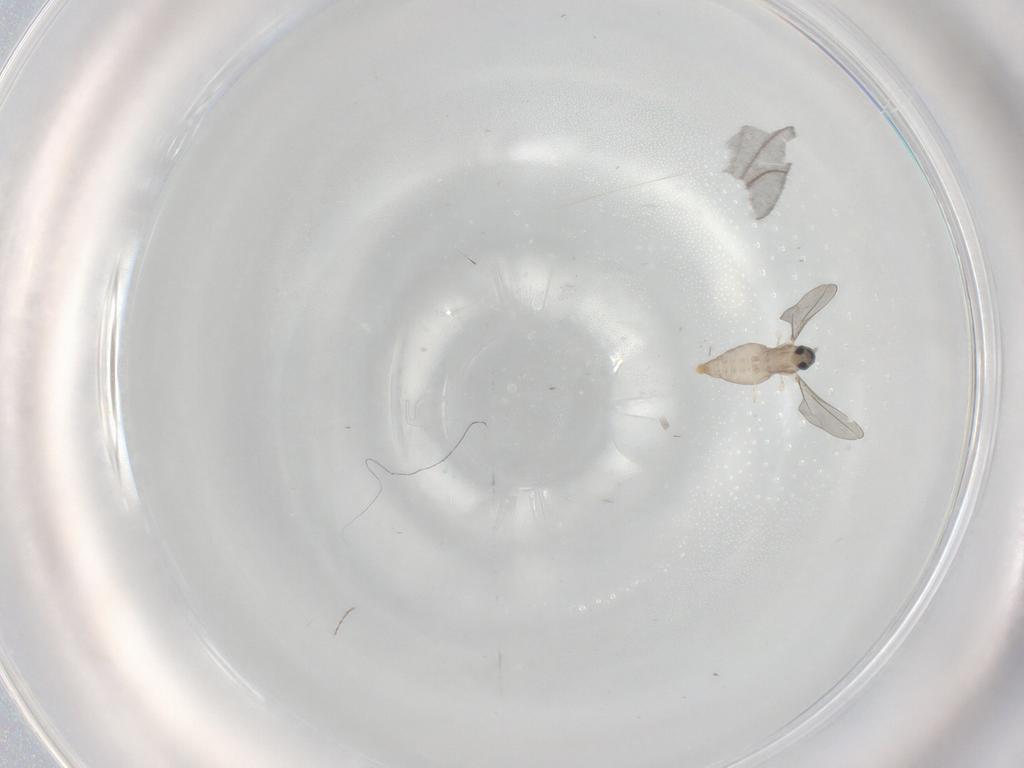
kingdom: Animalia
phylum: Arthropoda
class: Insecta
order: Diptera
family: Cecidomyiidae
